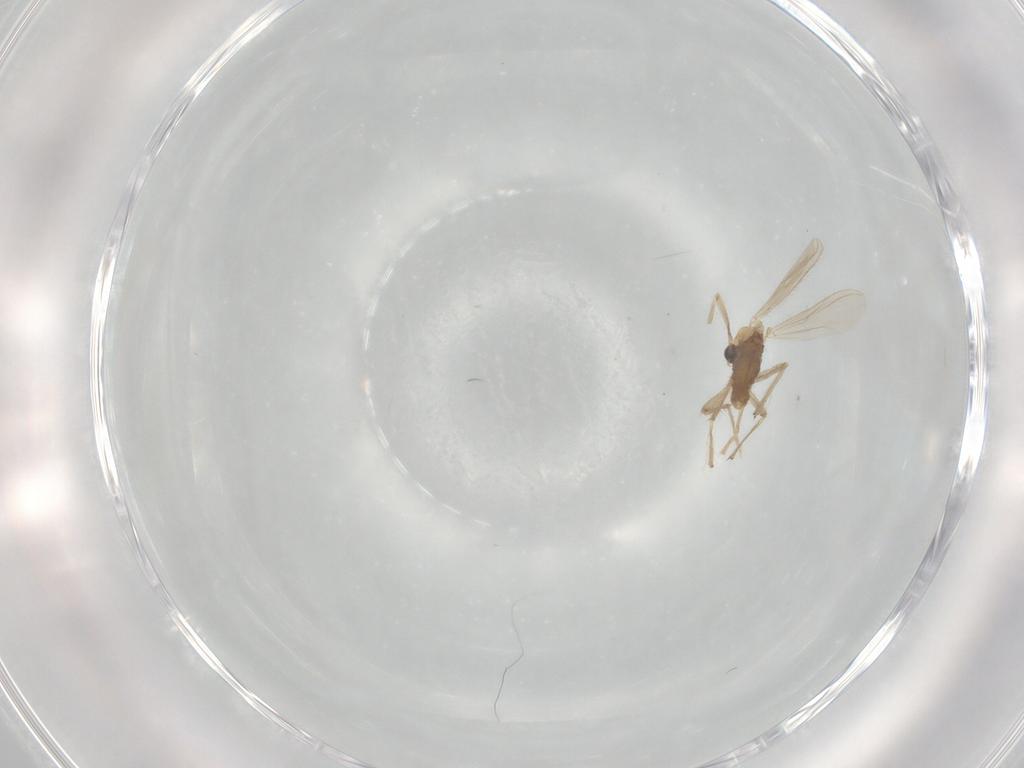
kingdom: Animalia
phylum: Arthropoda
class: Insecta
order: Diptera
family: Chironomidae
